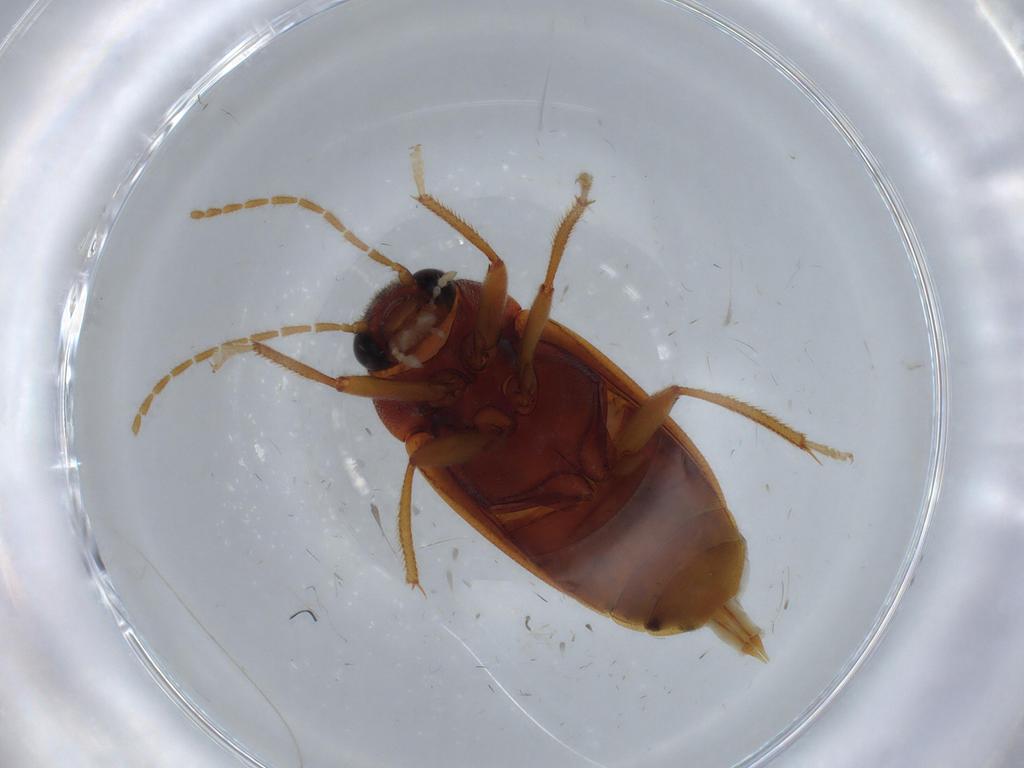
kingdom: Animalia
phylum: Arthropoda
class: Insecta
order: Coleoptera
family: Lycidae
